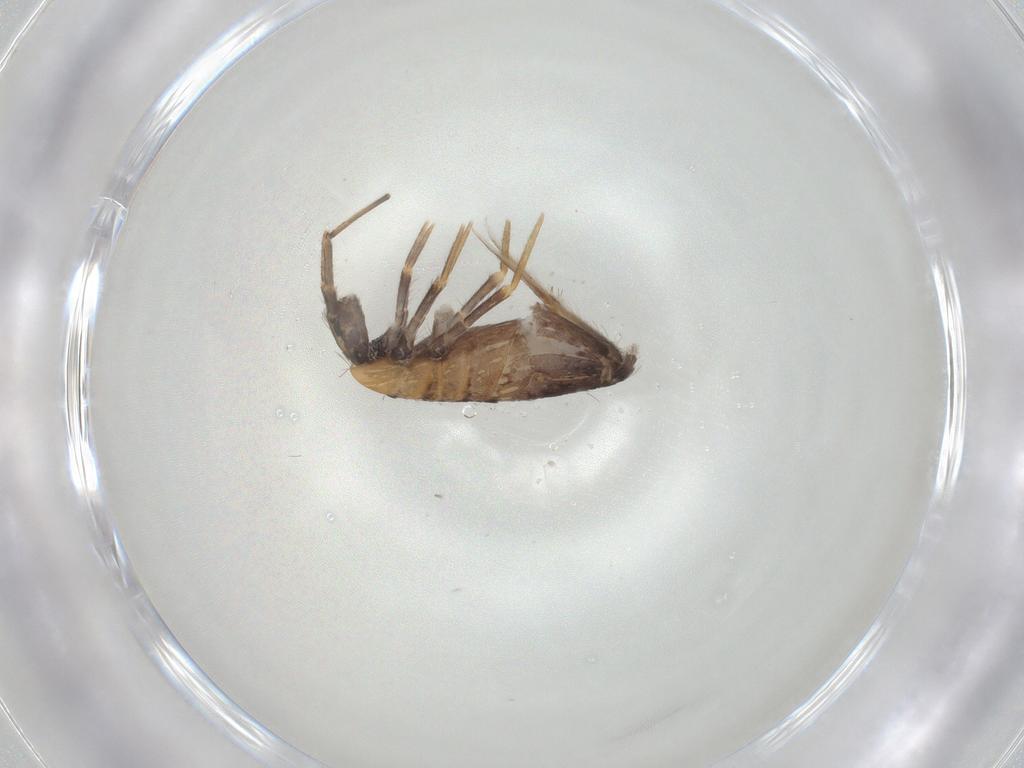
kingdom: Animalia
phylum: Arthropoda
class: Collembola
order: Entomobryomorpha
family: Entomobryidae
